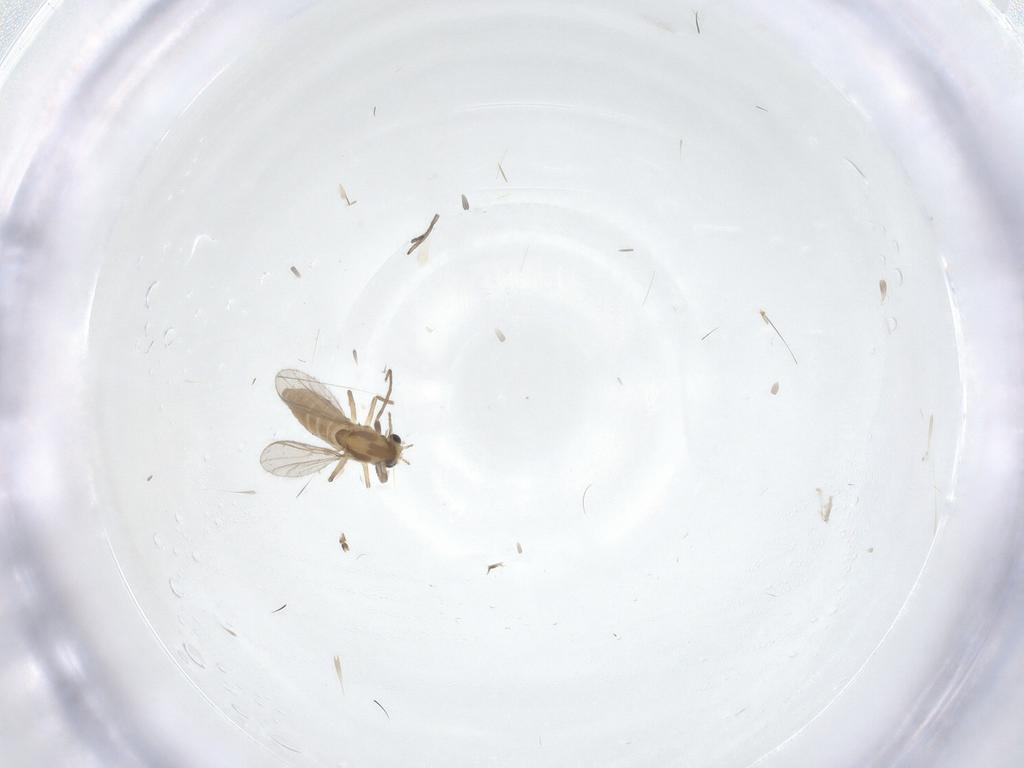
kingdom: Animalia
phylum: Arthropoda
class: Insecta
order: Diptera
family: Chironomidae
